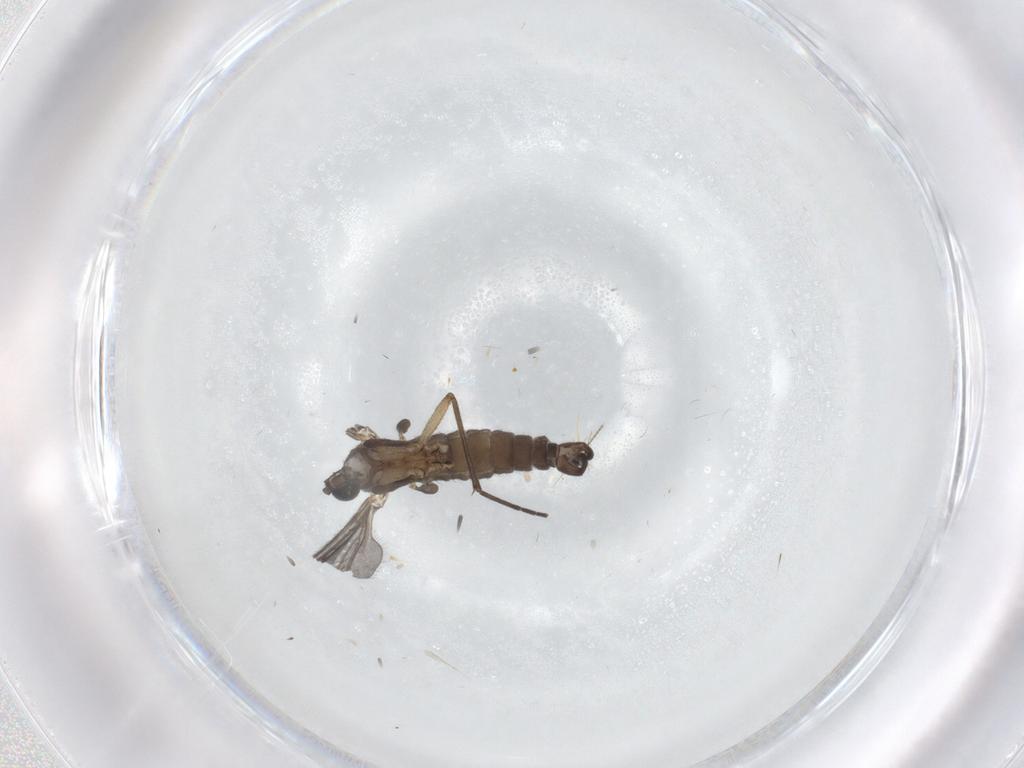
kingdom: Animalia
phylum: Arthropoda
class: Insecta
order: Diptera
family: Sciaridae
